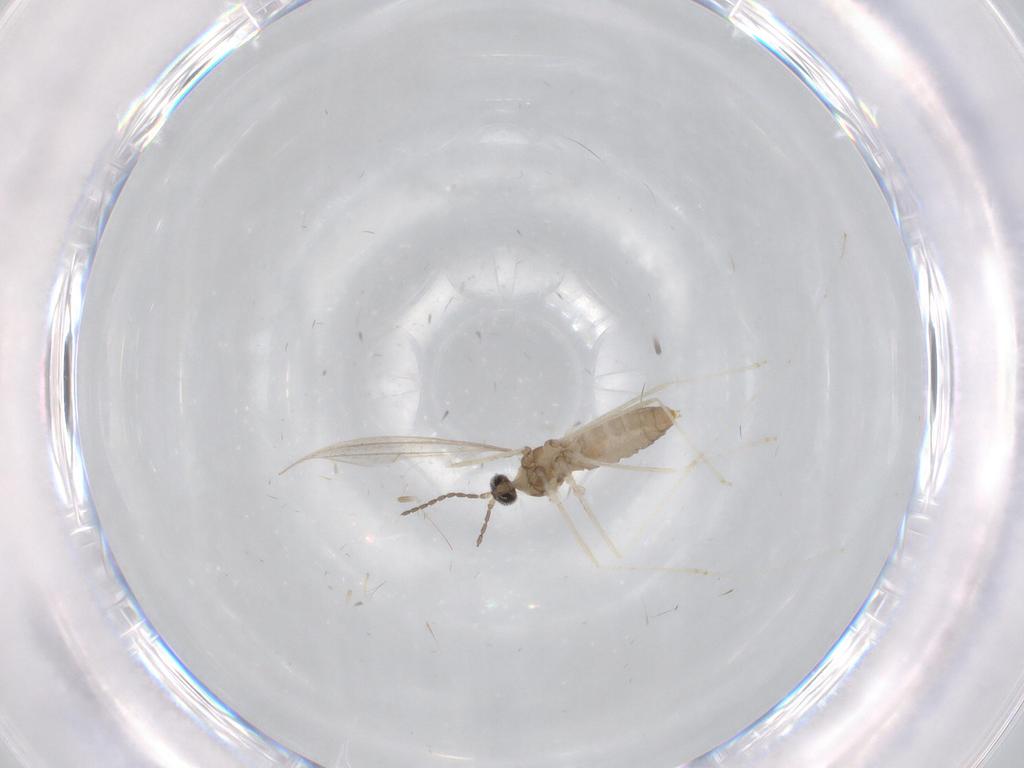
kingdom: Animalia
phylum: Arthropoda
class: Insecta
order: Diptera
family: Cecidomyiidae
